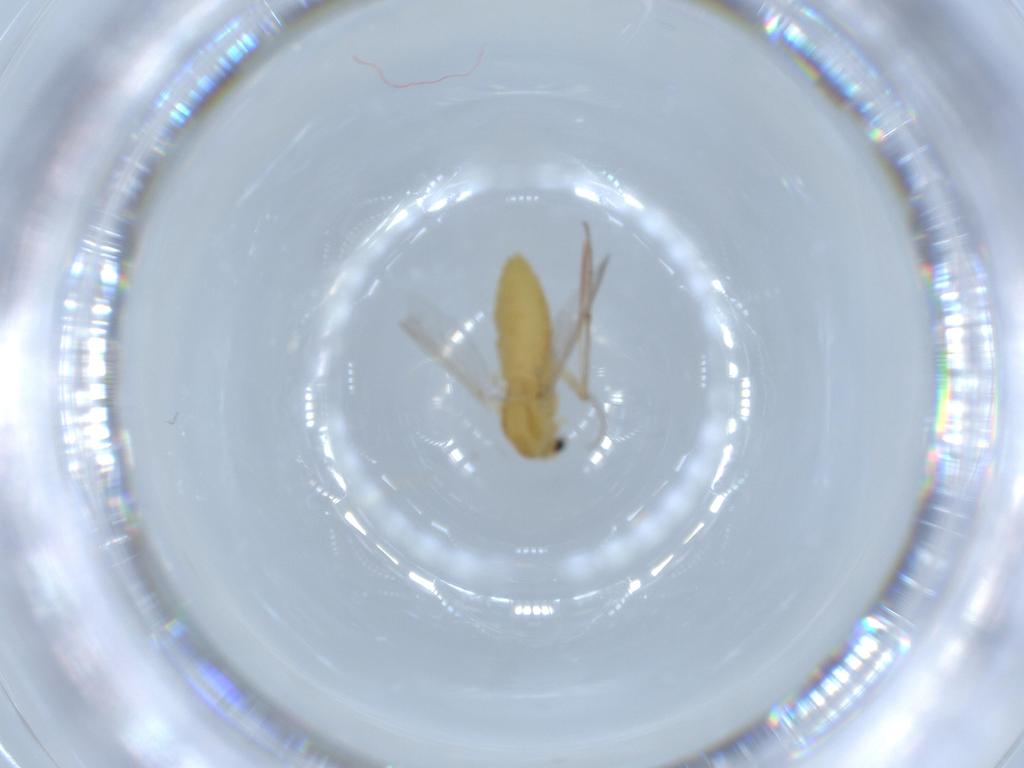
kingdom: Animalia
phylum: Arthropoda
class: Insecta
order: Diptera
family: Chironomidae
